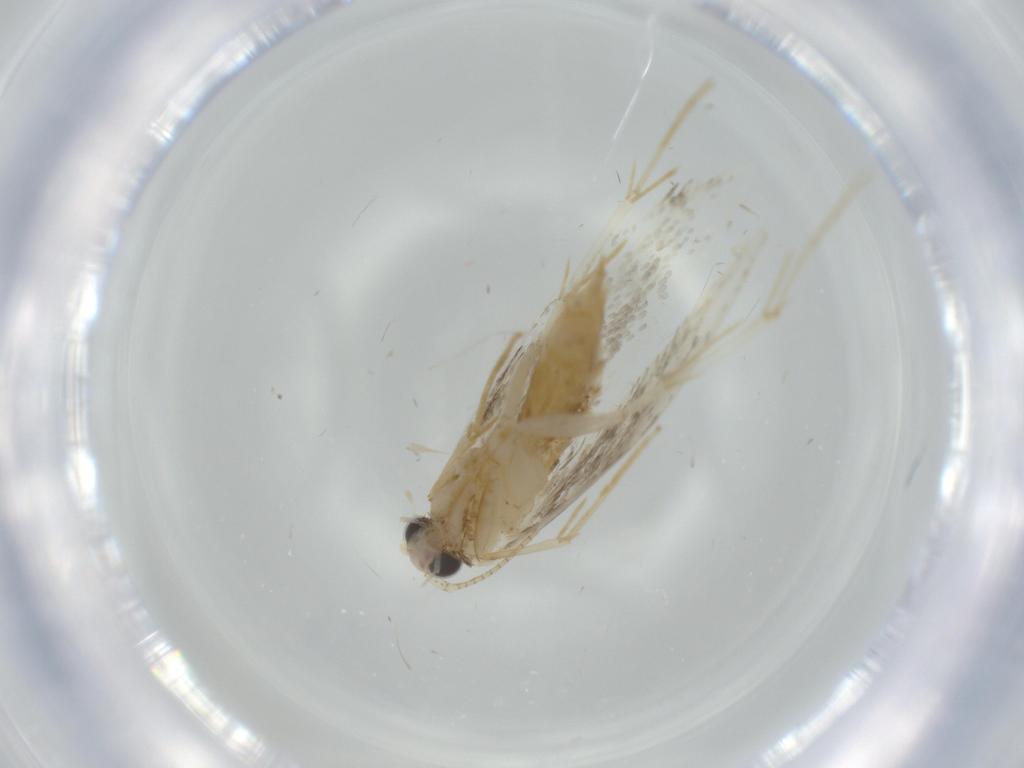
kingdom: Animalia
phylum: Arthropoda
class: Insecta
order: Lepidoptera
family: Tineidae
